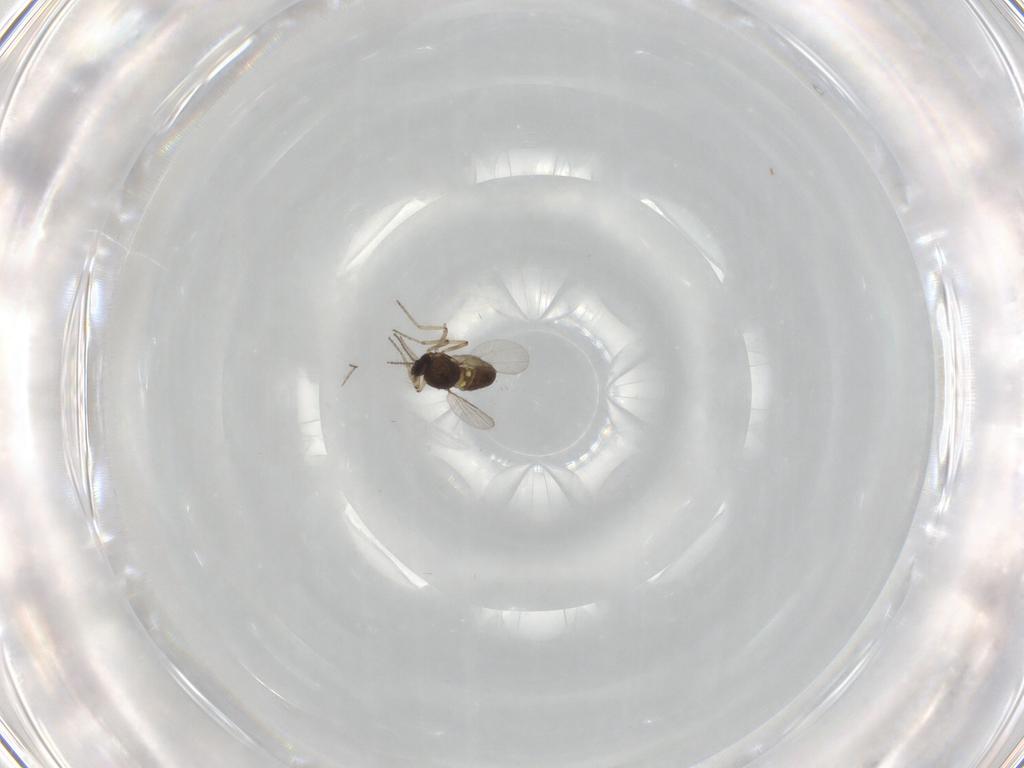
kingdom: Animalia
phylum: Arthropoda
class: Insecta
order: Diptera
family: Ceratopogonidae
